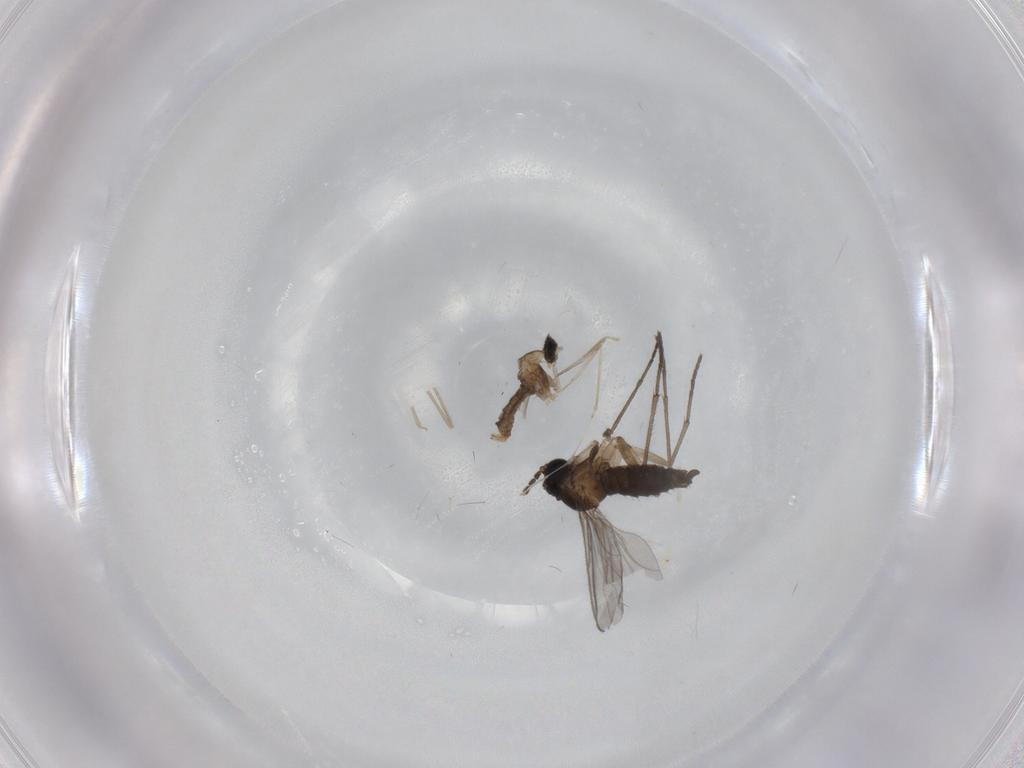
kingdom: Animalia
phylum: Arthropoda
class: Insecta
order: Diptera
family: Cecidomyiidae
